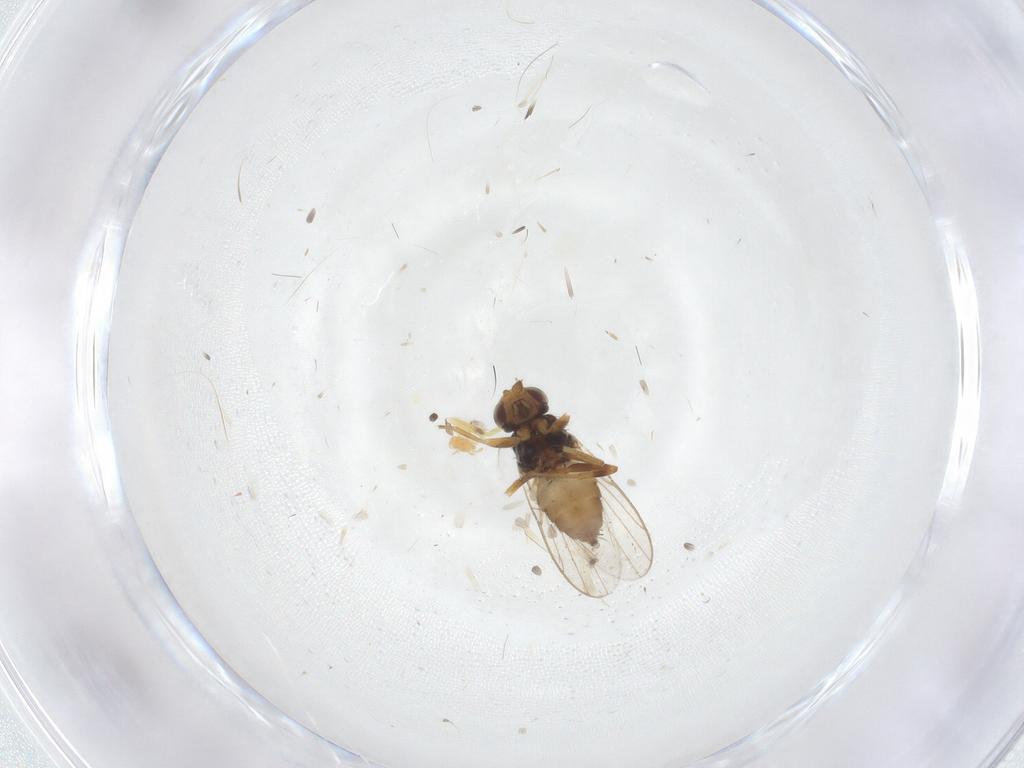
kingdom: Animalia
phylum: Arthropoda
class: Insecta
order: Diptera
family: Chloropidae
